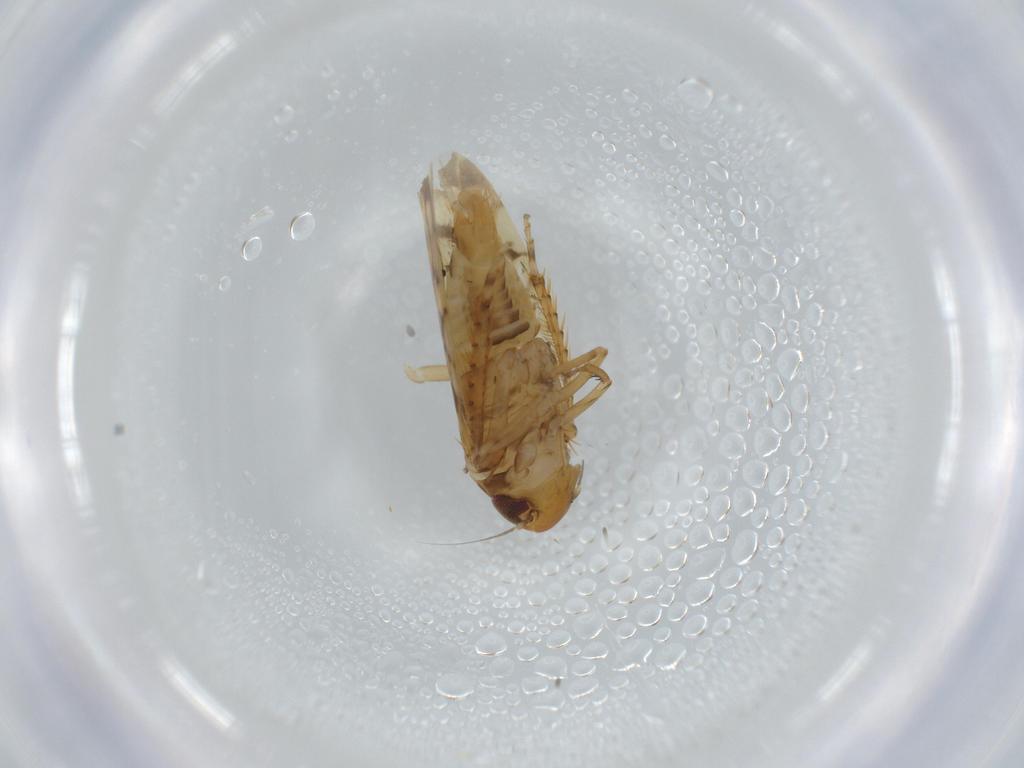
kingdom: Animalia
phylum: Arthropoda
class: Insecta
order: Hemiptera
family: Cicadellidae
